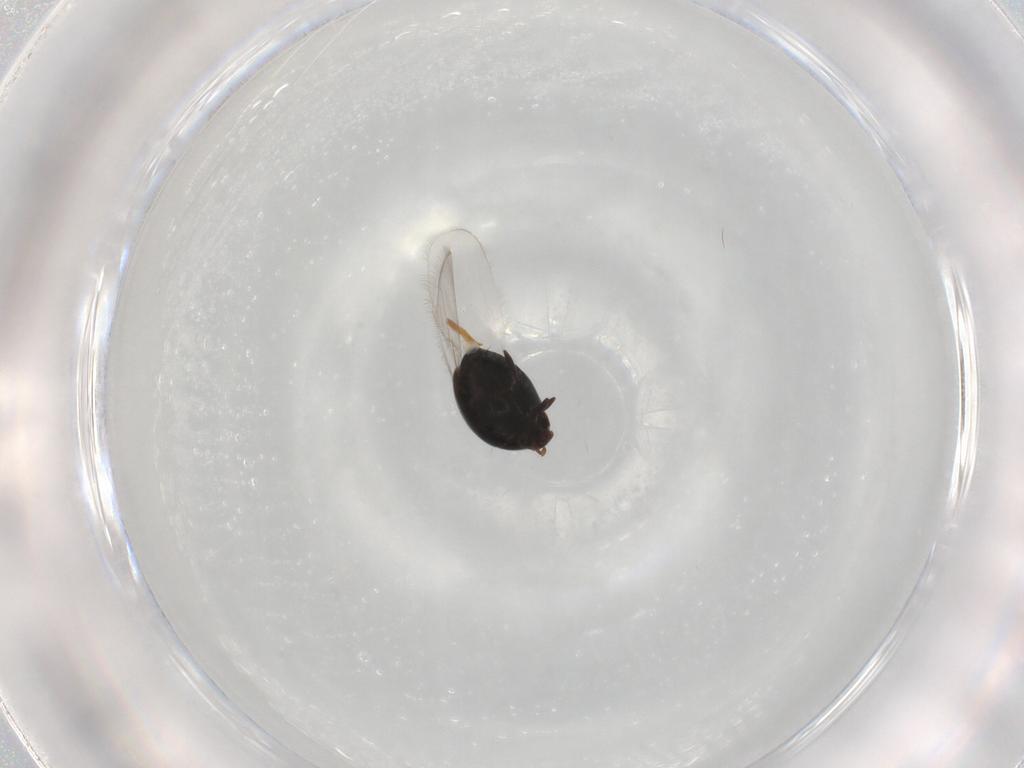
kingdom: Animalia
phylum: Arthropoda
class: Insecta
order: Coleoptera
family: Corylophidae
